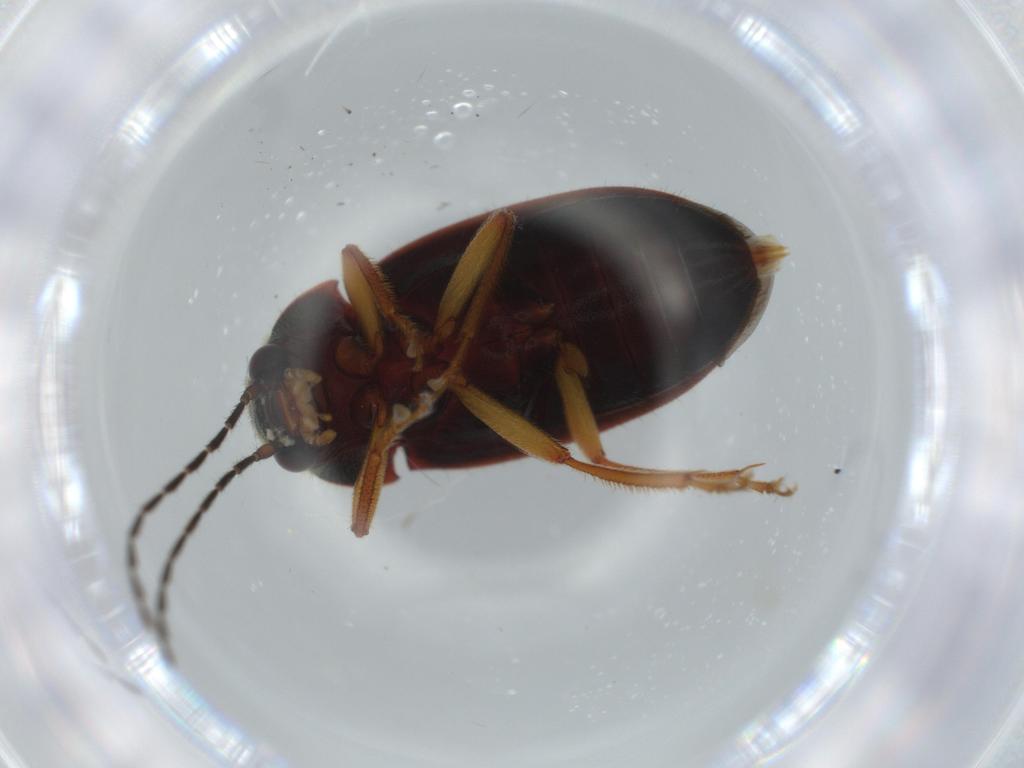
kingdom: Animalia
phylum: Arthropoda
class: Insecta
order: Coleoptera
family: Ptilodactylidae
